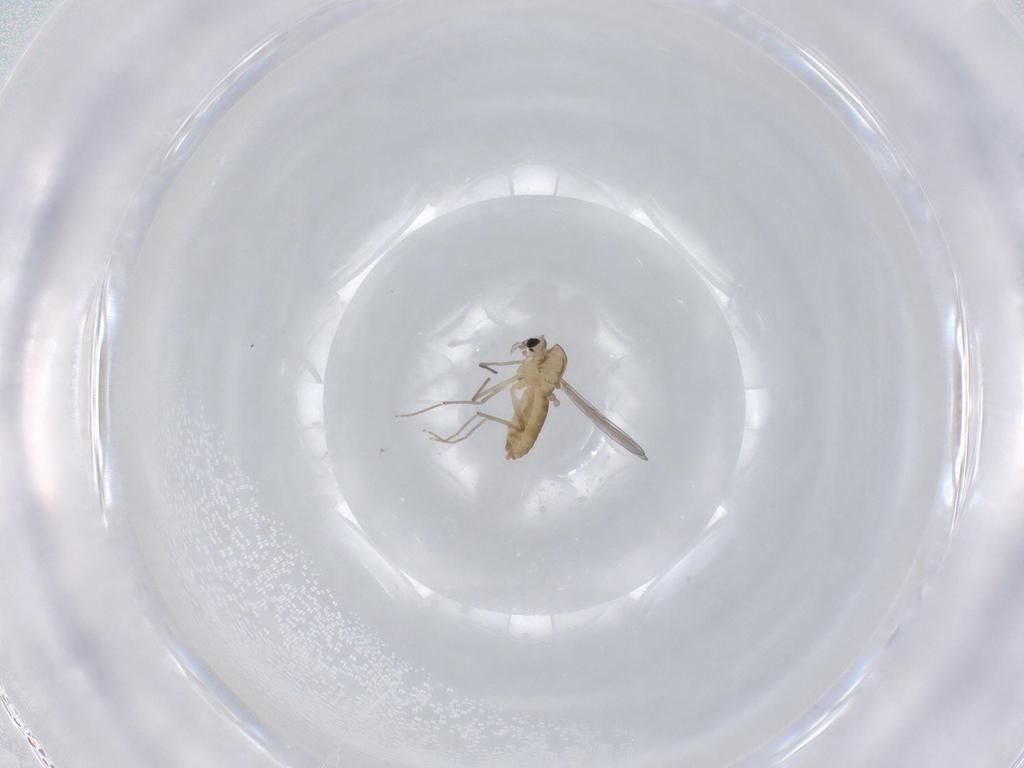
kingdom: Animalia
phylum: Arthropoda
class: Insecta
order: Diptera
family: Chironomidae
